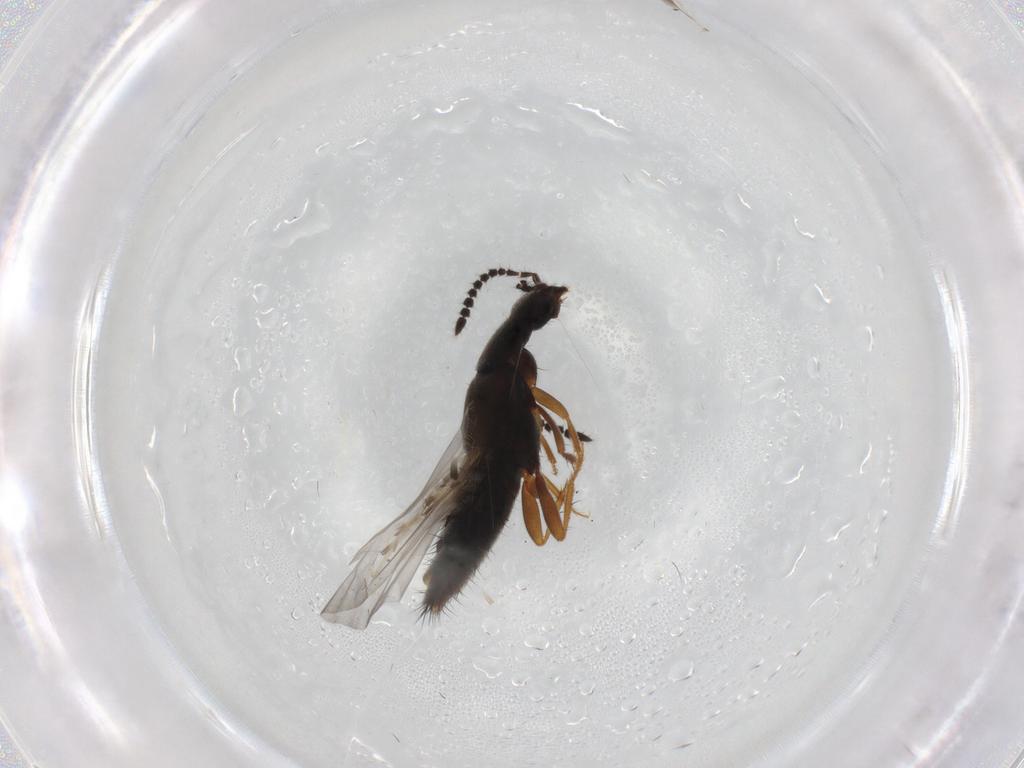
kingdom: Animalia
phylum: Arthropoda
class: Insecta
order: Coleoptera
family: Staphylinidae
